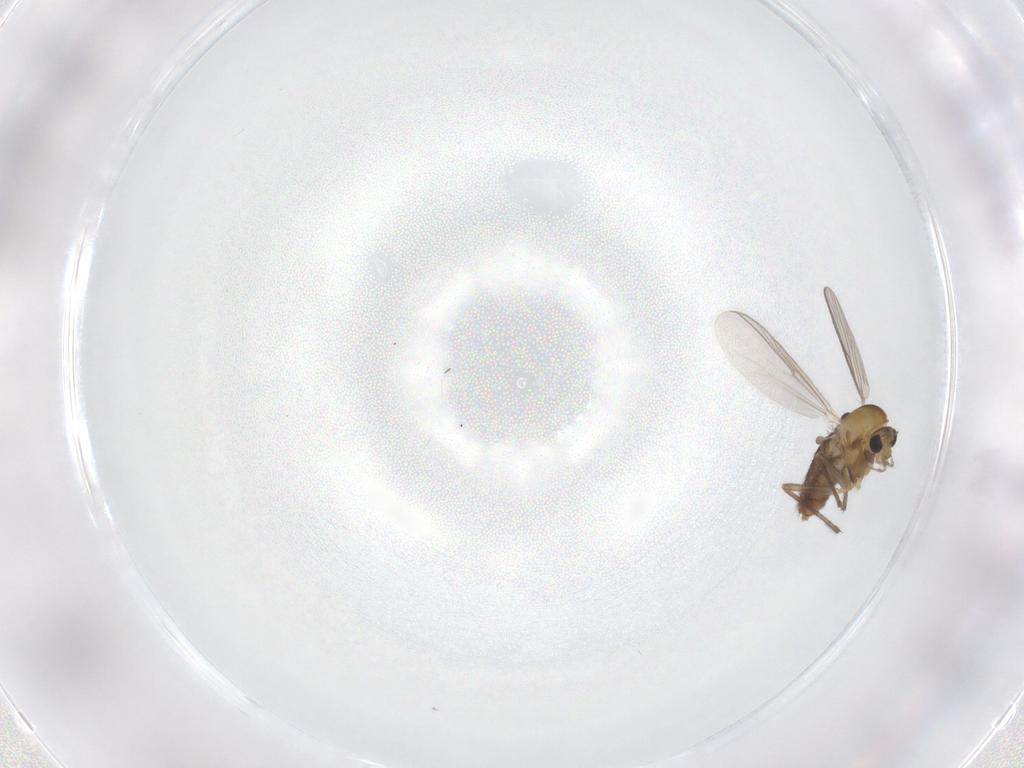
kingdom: Animalia
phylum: Arthropoda
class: Insecta
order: Diptera
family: Chironomidae
